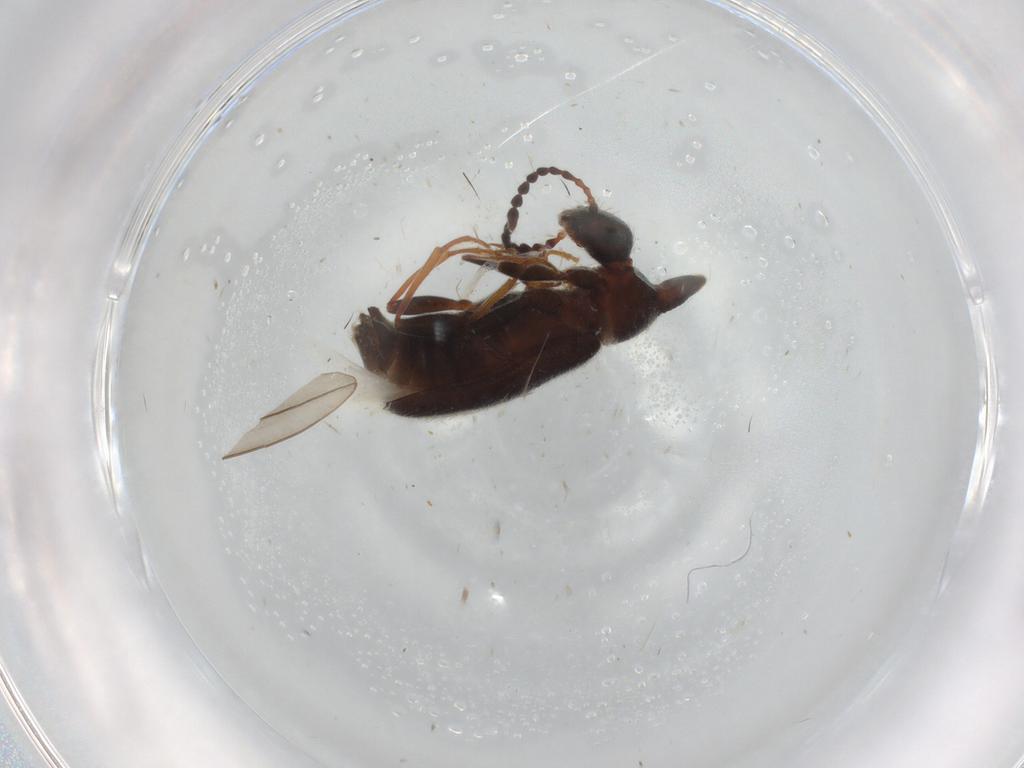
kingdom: Animalia
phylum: Arthropoda
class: Insecta
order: Coleoptera
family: Anthicidae
